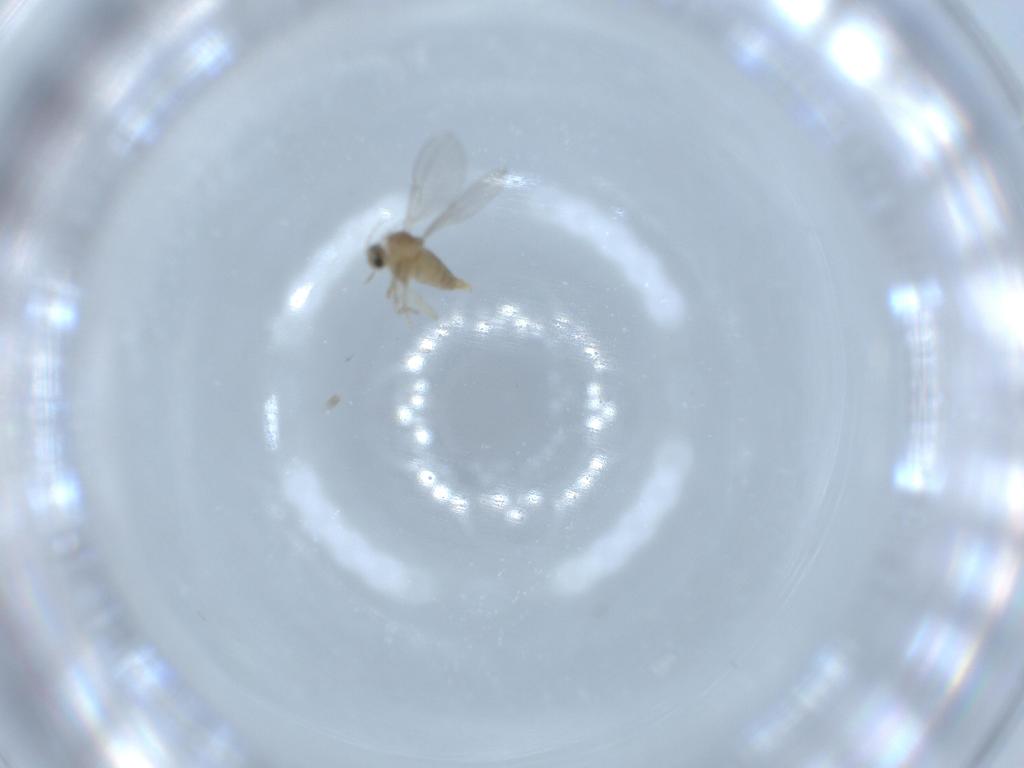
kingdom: Animalia
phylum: Arthropoda
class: Insecta
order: Diptera
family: Cecidomyiidae
